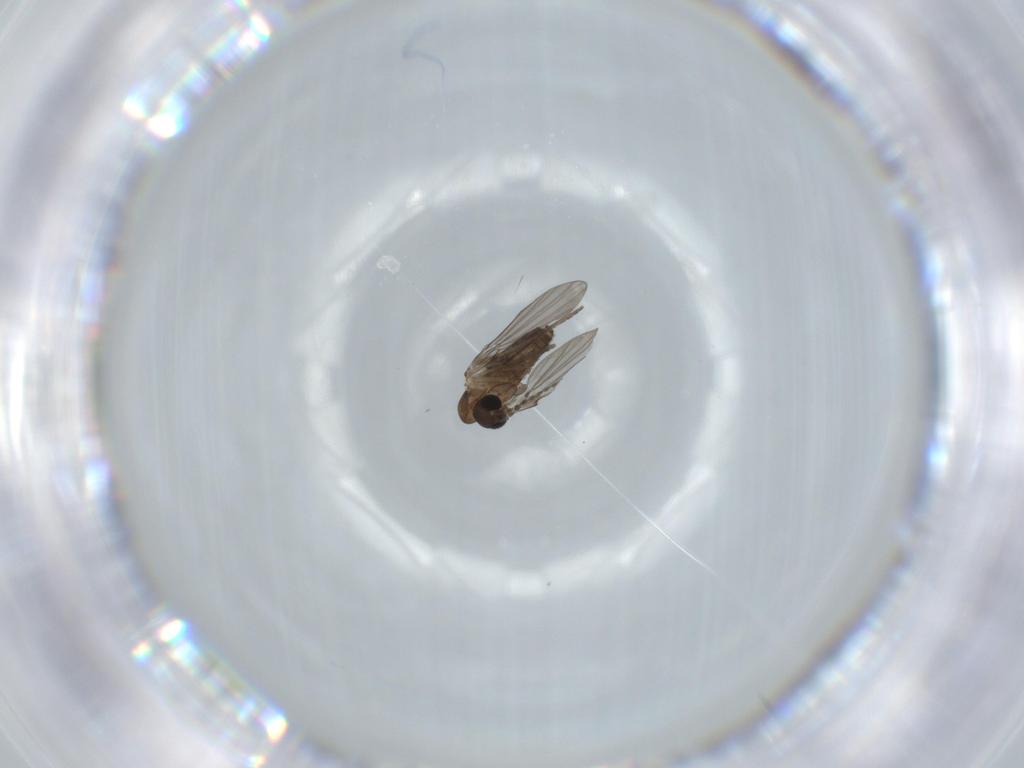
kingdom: Animalia
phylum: Arthropoda
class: Insecta
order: Diptera
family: Psychodidae
